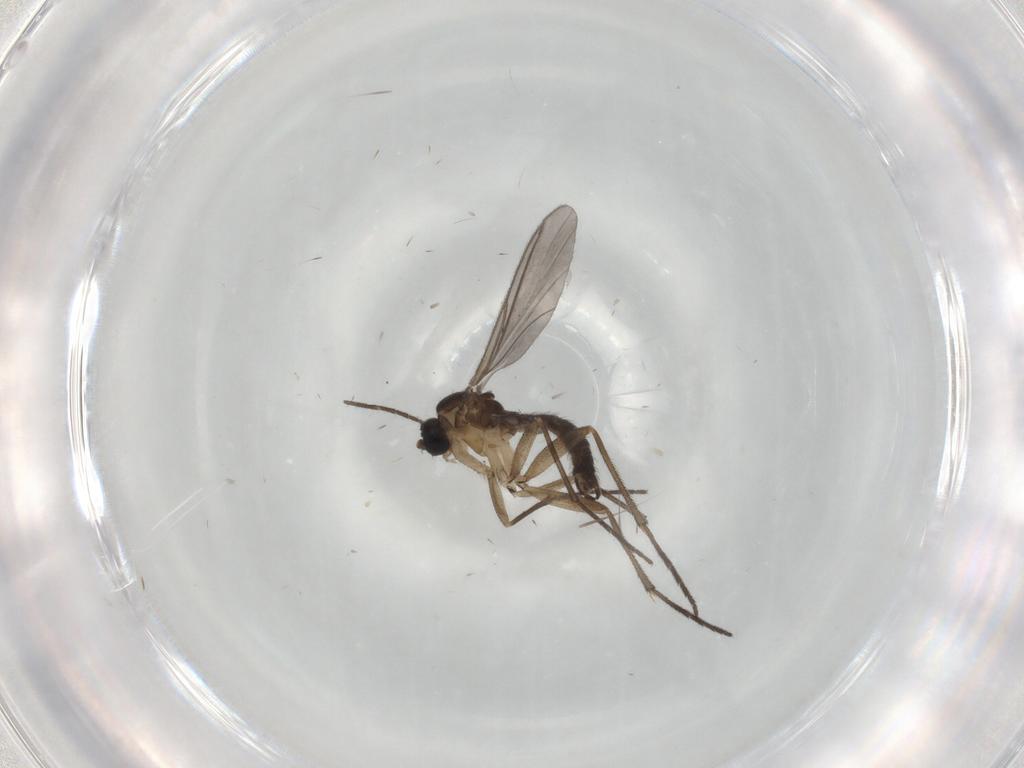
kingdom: Animalia
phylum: Arthropoda
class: Insecta
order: Diptera
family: Sciaridae
